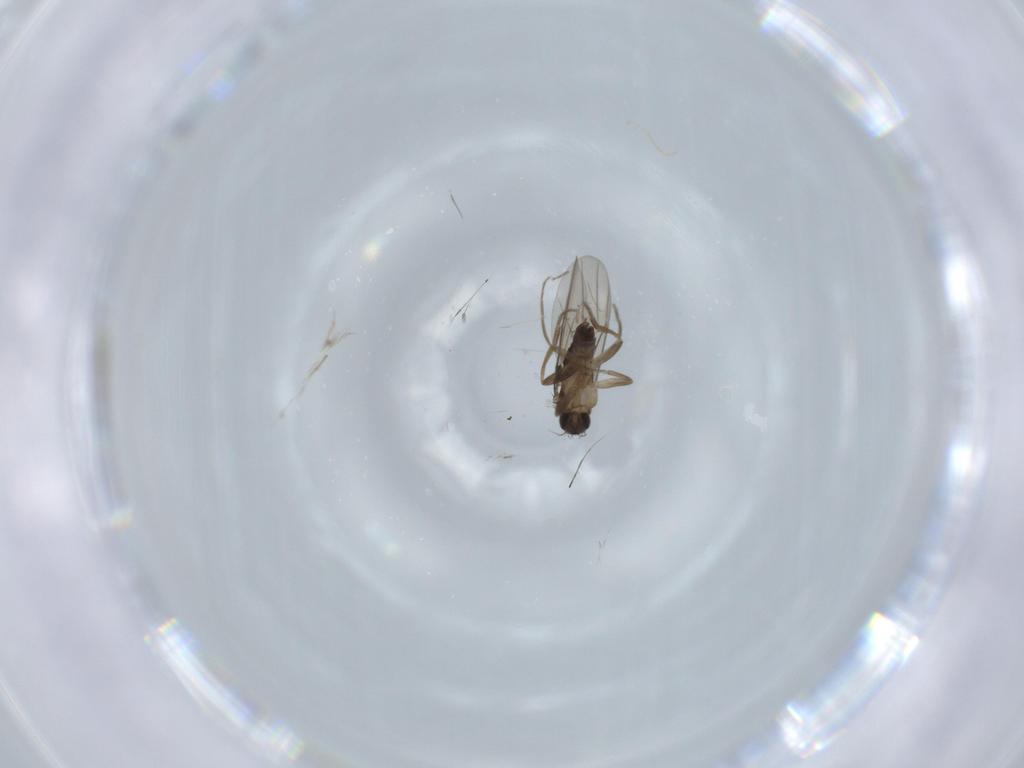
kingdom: Animalia
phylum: Arthropoda
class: Insecta
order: Diptera
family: Phoridae
